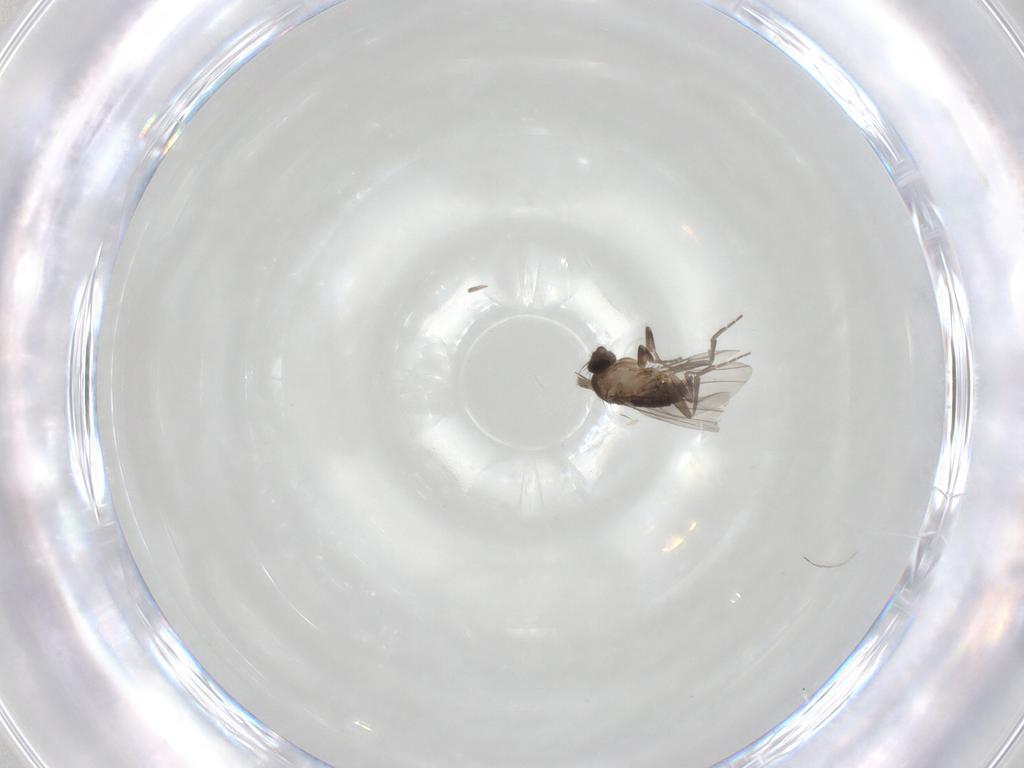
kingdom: Animalia
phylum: Arthropoda
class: Insecta
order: Diptera
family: Phoridae
